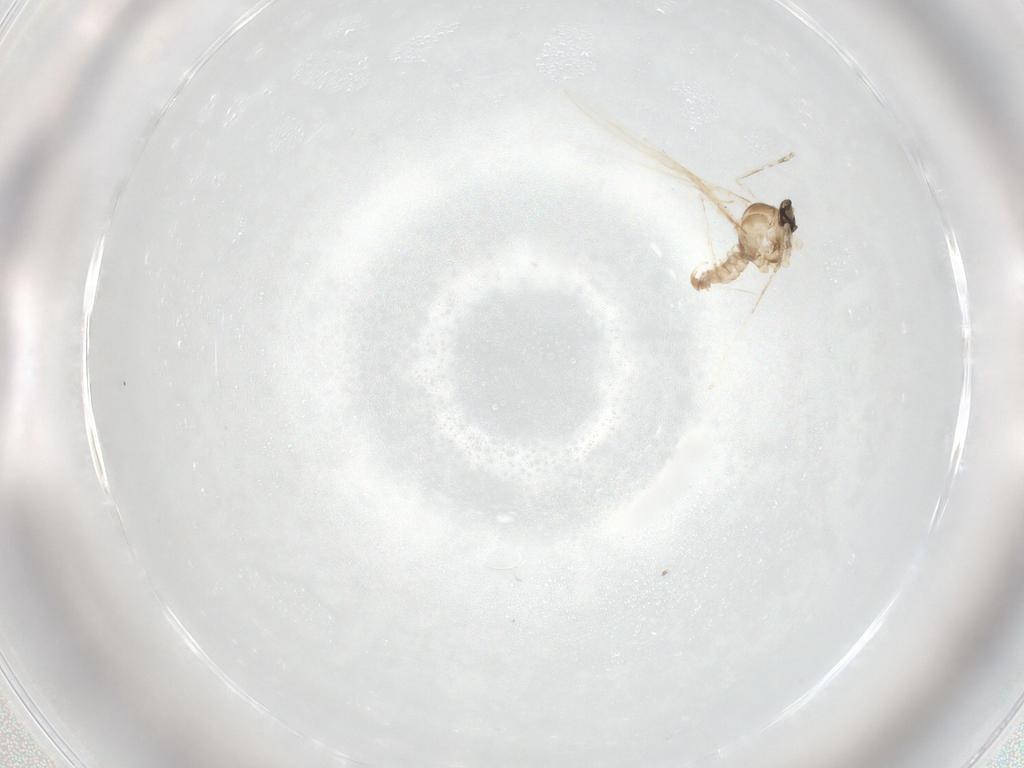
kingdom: Animalia
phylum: Arthropoda
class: Insecta
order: Diptera
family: Cecidomyiidae
